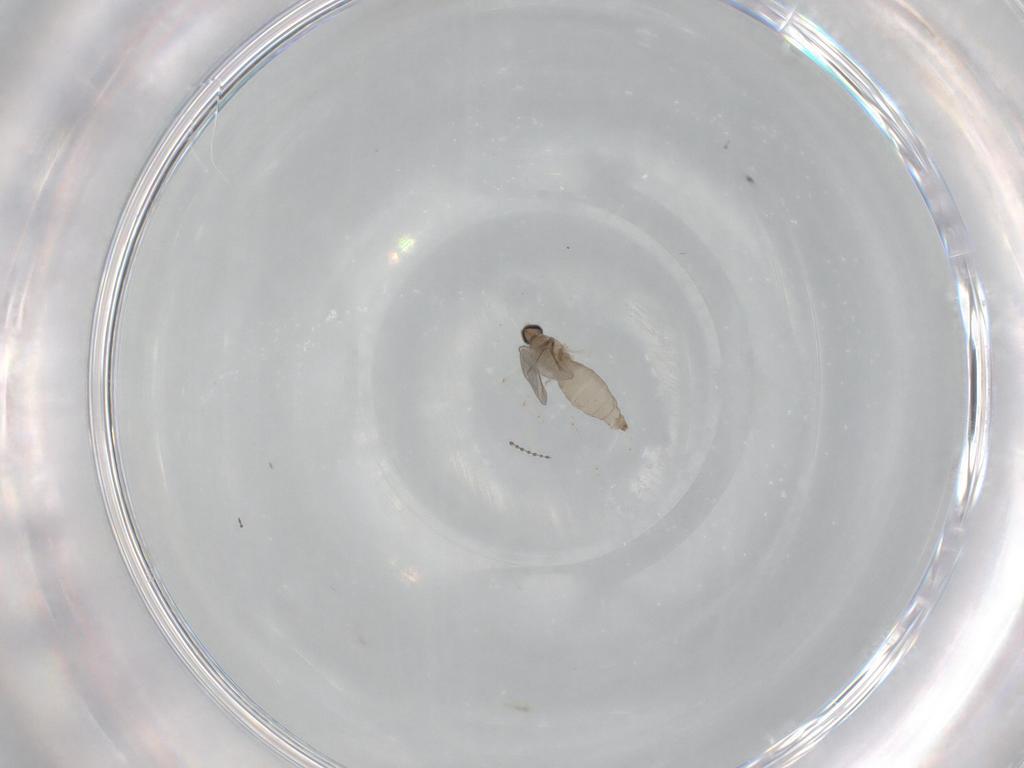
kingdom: Animalia
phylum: Arthropoda
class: Insecta
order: Diptera
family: Cecidomyiidae
